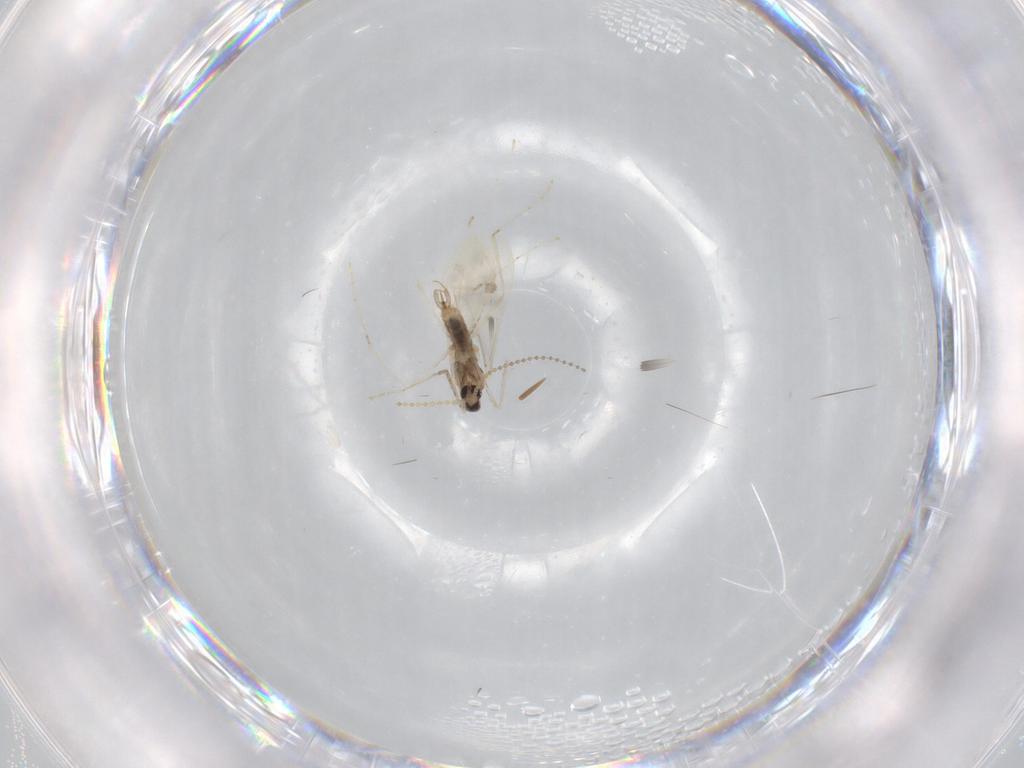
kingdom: Animalia
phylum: Arthropoda
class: Insecta
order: Diptera
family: Cecidomyiidae
